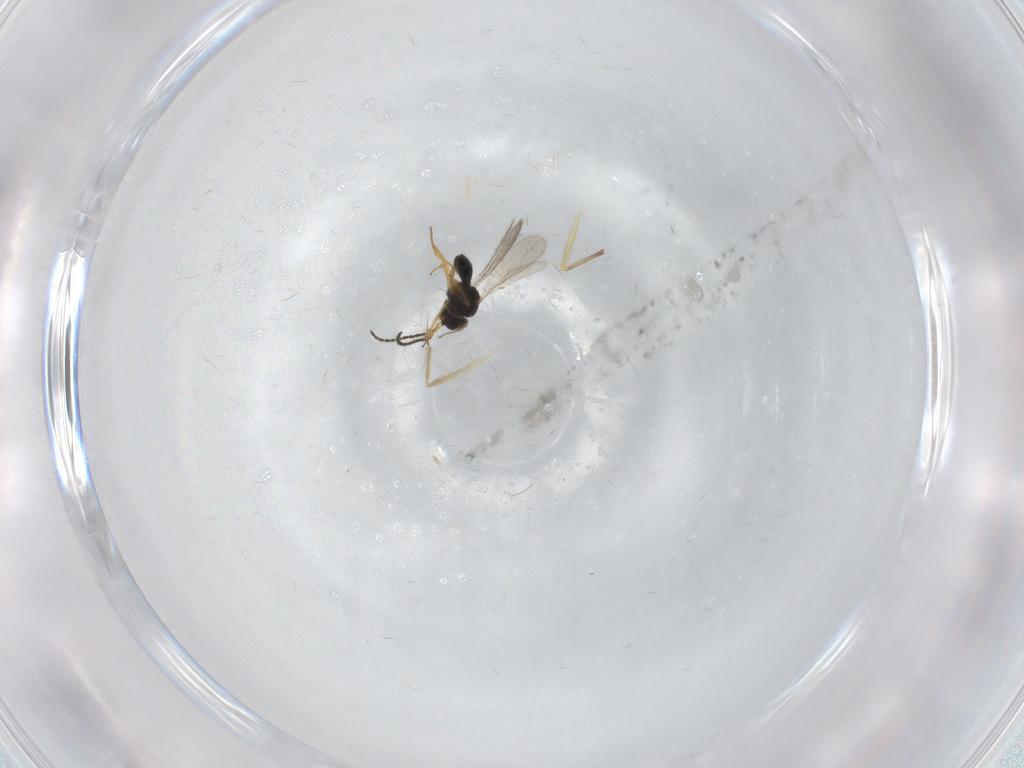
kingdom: Animalia
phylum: Arthropoda
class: Insecta
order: Hymenoptera
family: Scelionidae
